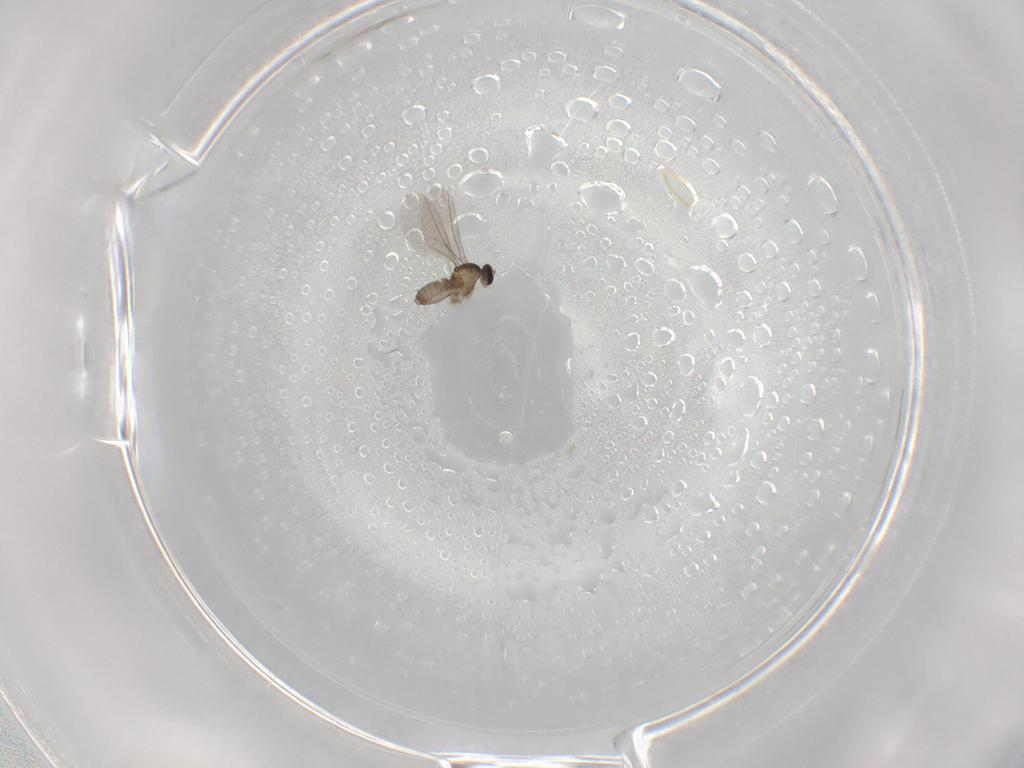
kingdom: Animalia
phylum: Arthropoda
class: Insecta
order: Diptera
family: Cecidomyiidae
